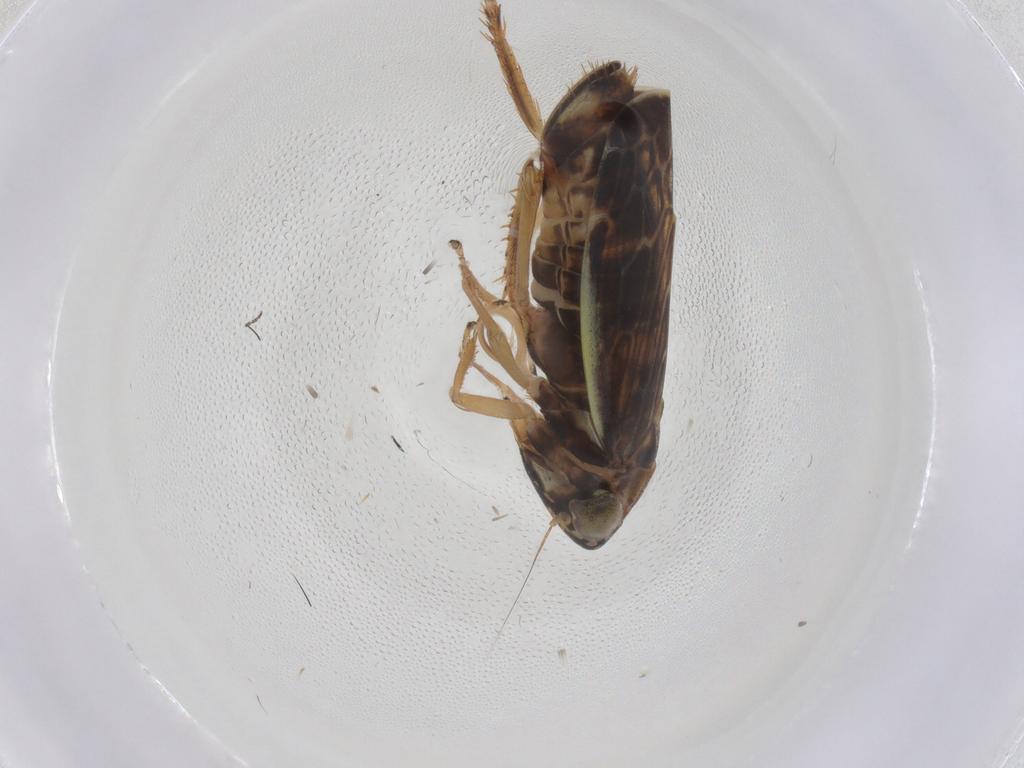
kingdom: Animalia
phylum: Arthropoda
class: Insecta
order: Hemiptera
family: Cicadellidae
